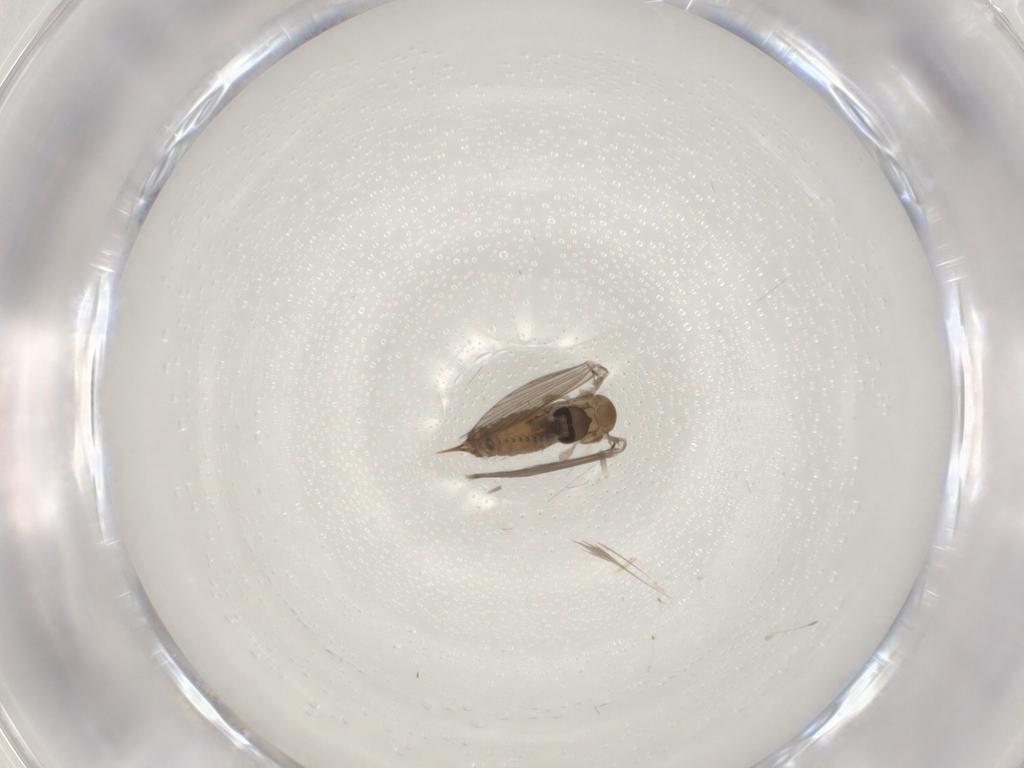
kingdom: Animalia
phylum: Arthropoda
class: Insecta
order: Diptera
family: Psychodidae
